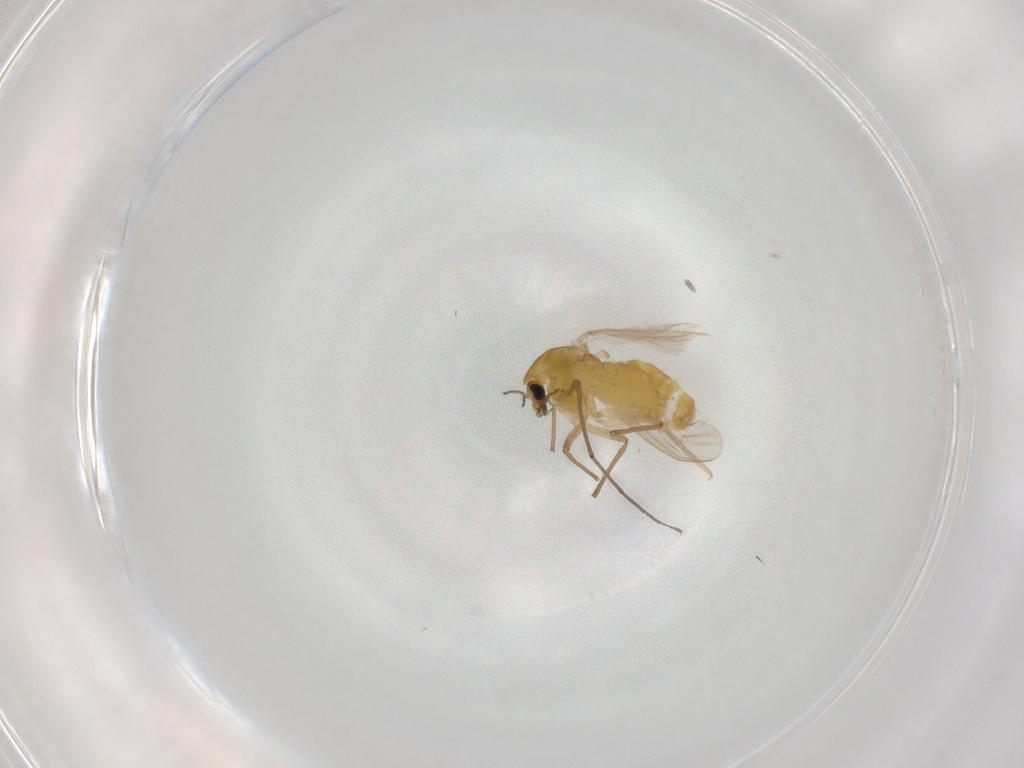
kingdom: Animalia
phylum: Arthropoda
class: Insecta
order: Diptera
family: Chironomidae
